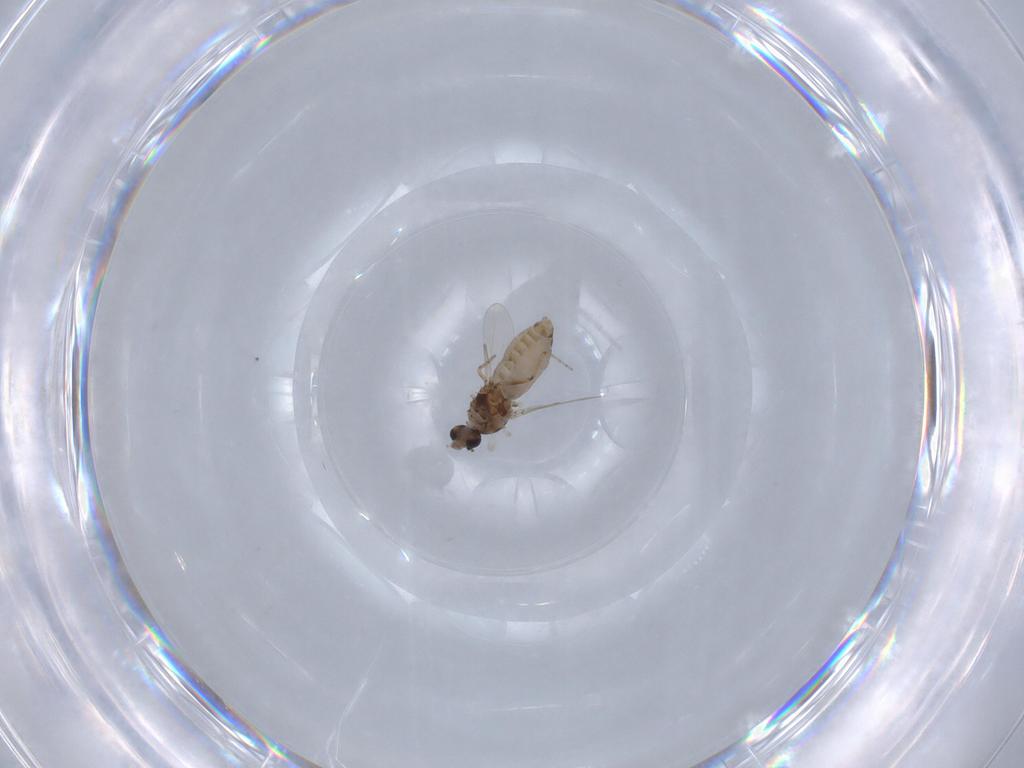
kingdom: Animalia
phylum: Arthropoda
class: Insecta
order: Diptera
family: Ceratopogonidae
